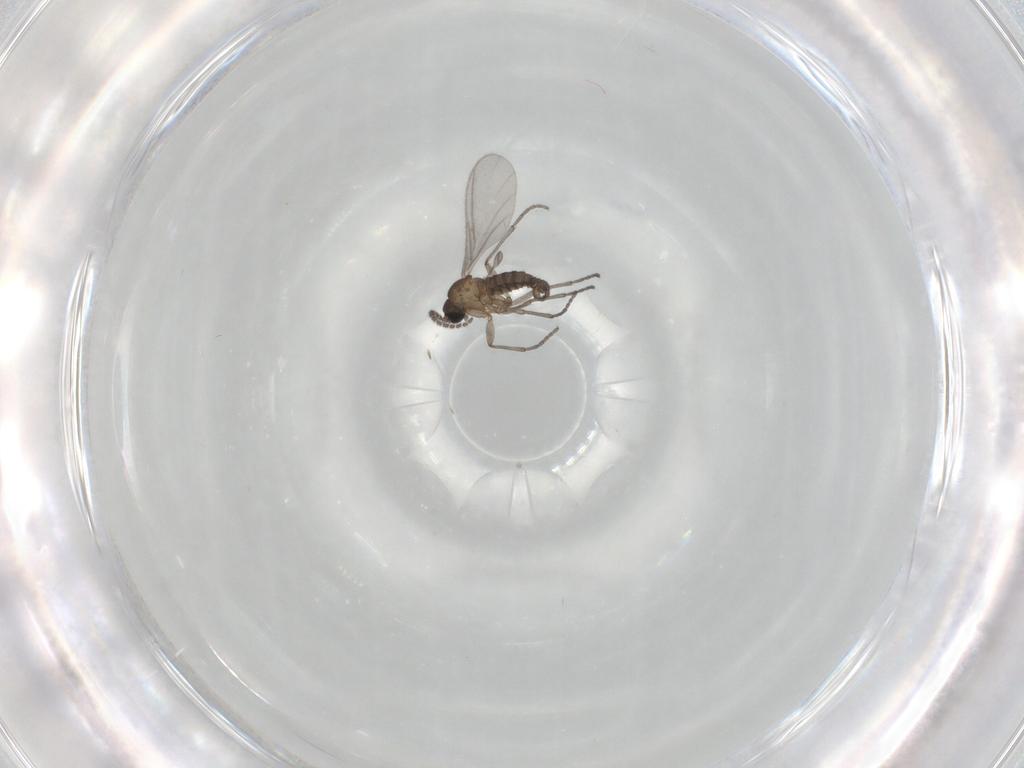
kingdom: Animalia
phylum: Arthropoda
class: Insecta
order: Diptera
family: Sciaridae
